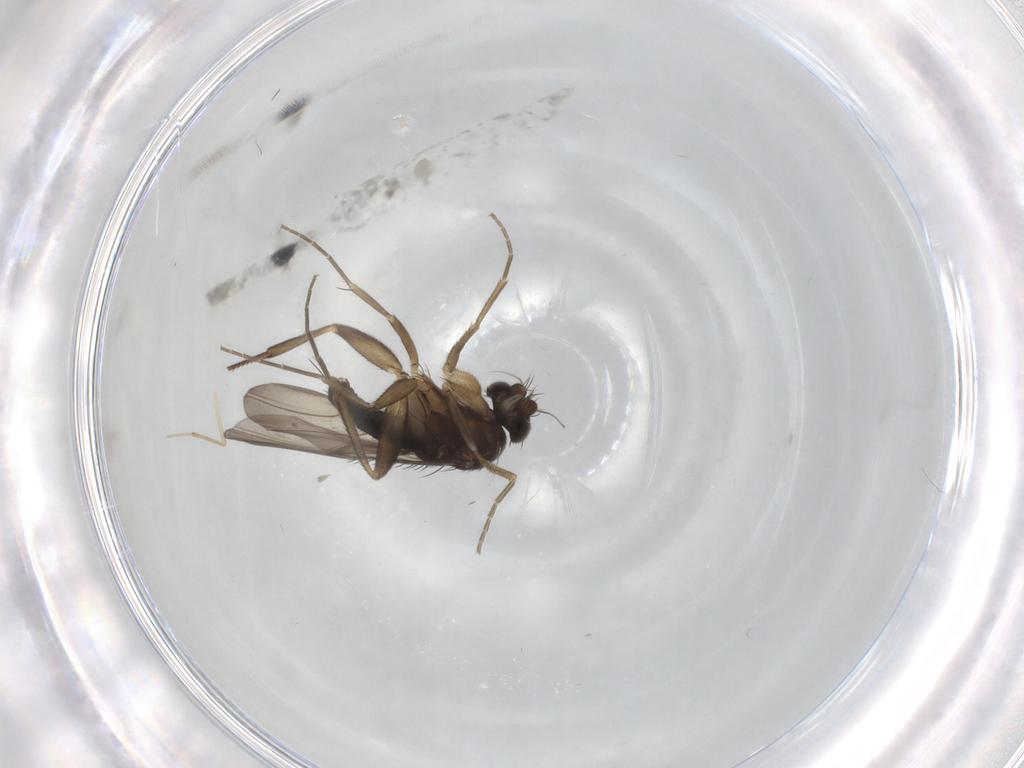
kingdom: Animalia
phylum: Arthropoda
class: Insecta
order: Diptera
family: Phoridae
